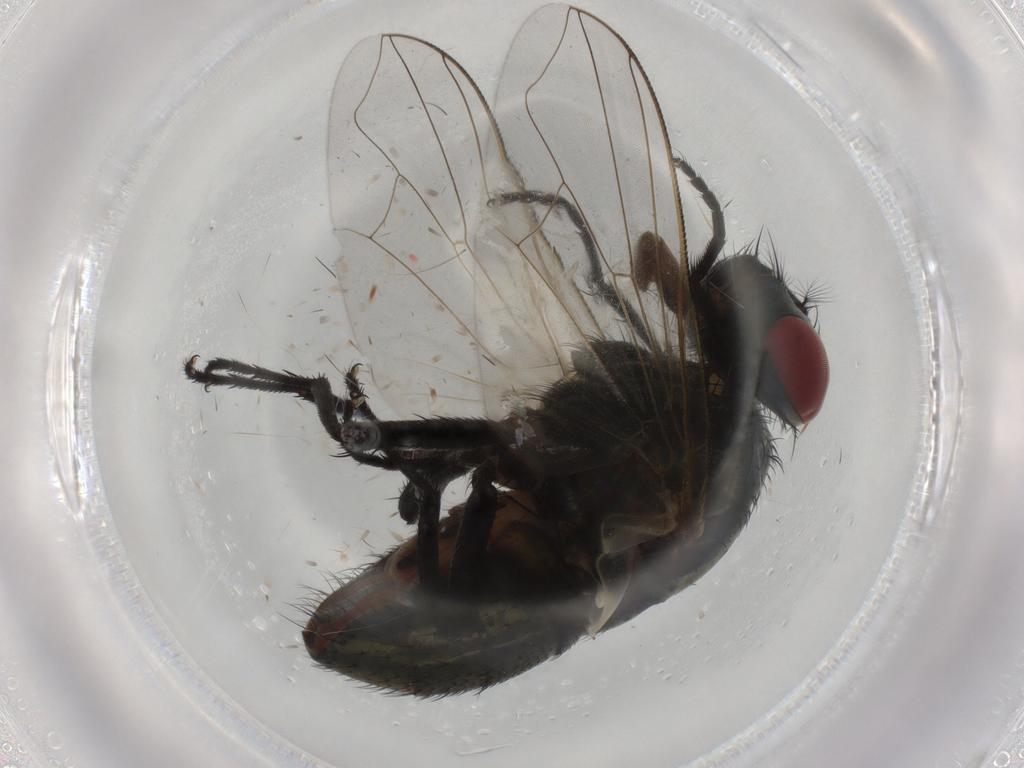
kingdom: Animalia
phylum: Arthropoda
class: Insecta
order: Diptera
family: Muscidae
